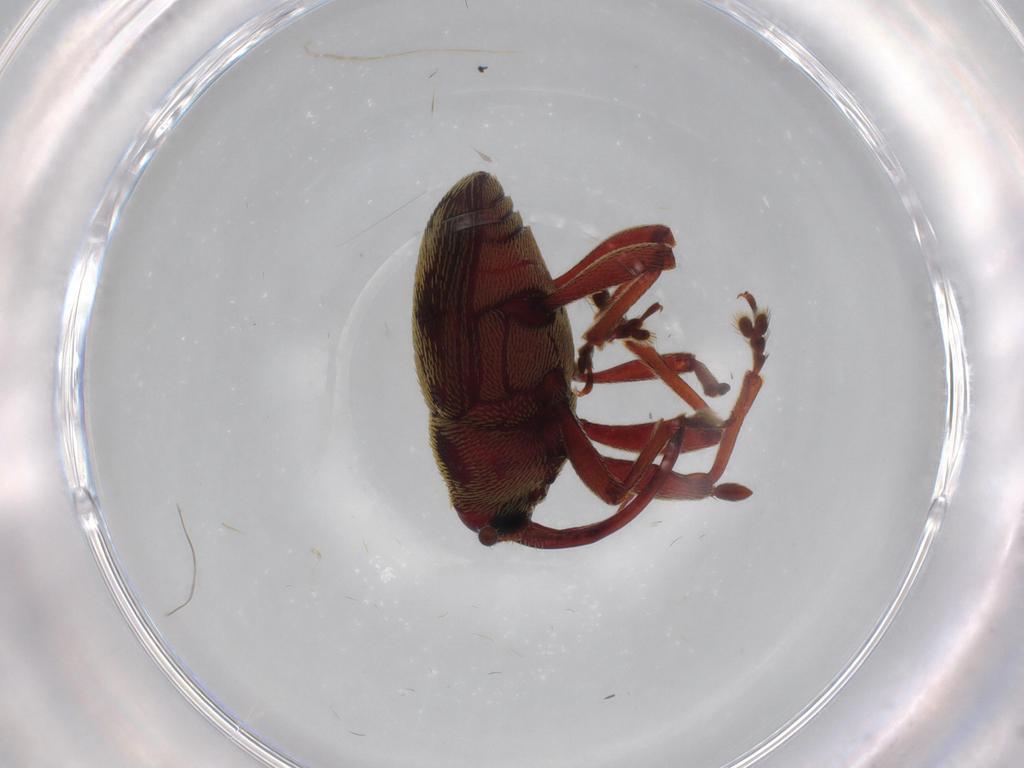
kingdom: Animalia
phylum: Arthropoda
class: Insecta
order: Coleoptera
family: Curculionidae
